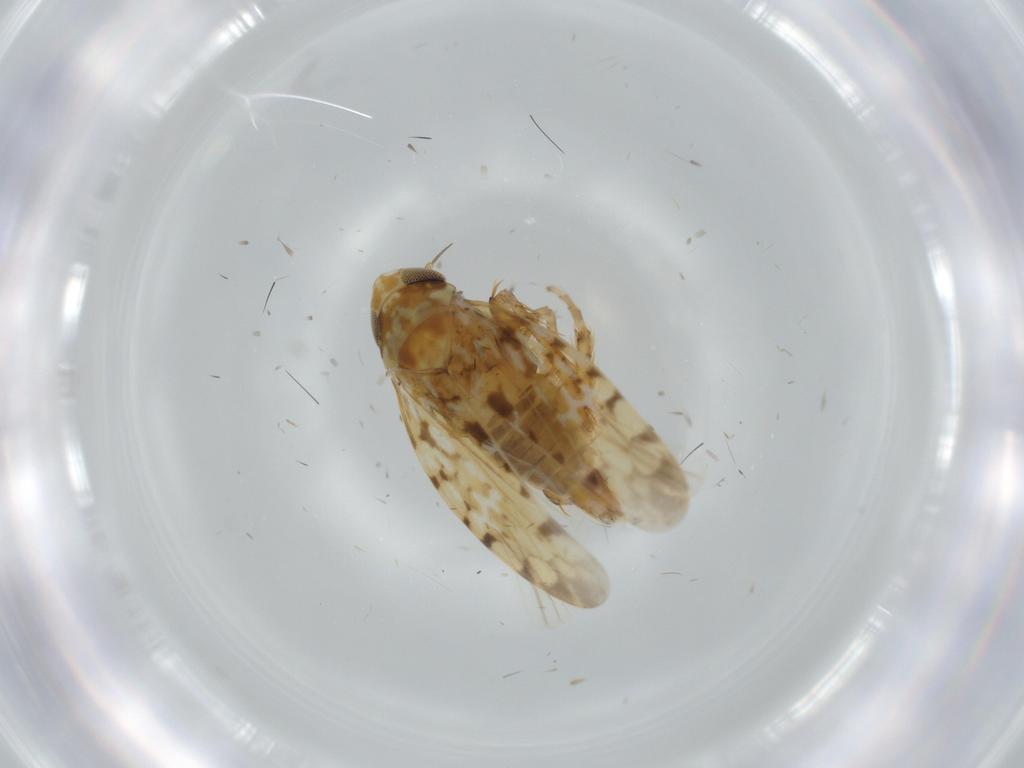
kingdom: Animalia
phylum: Arthropoda
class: Insecta
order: Hemiptera
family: Cicadellidae
